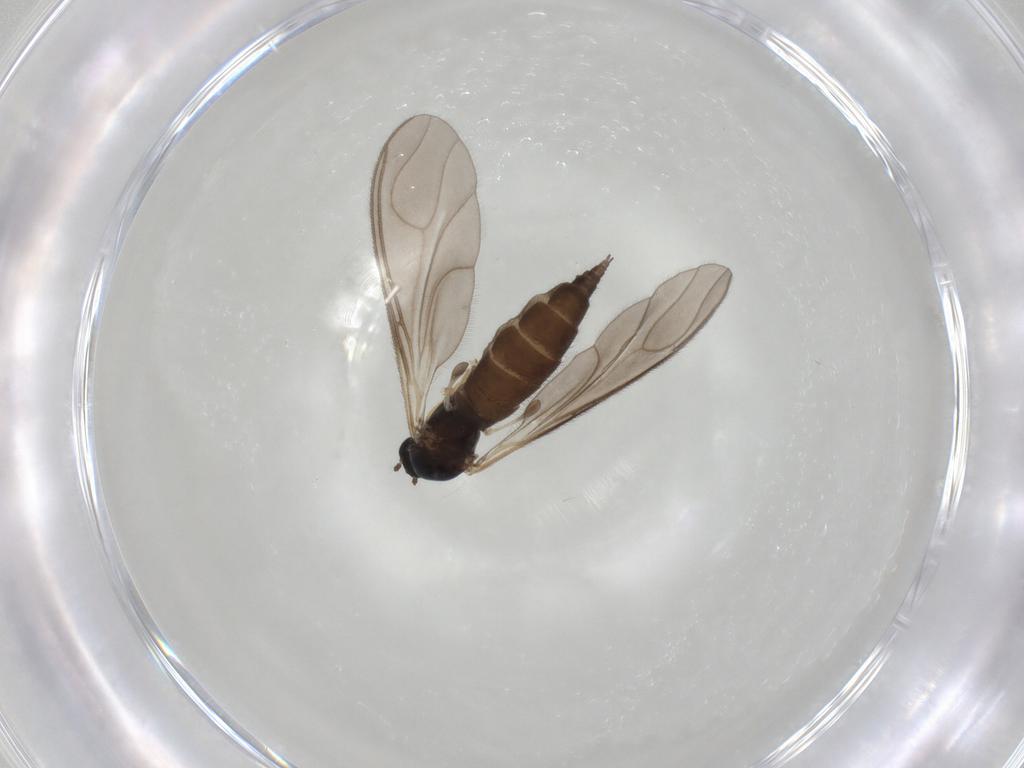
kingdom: Animalia
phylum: Arthropoda
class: Insecta
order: Diptera
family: Sciaridae
